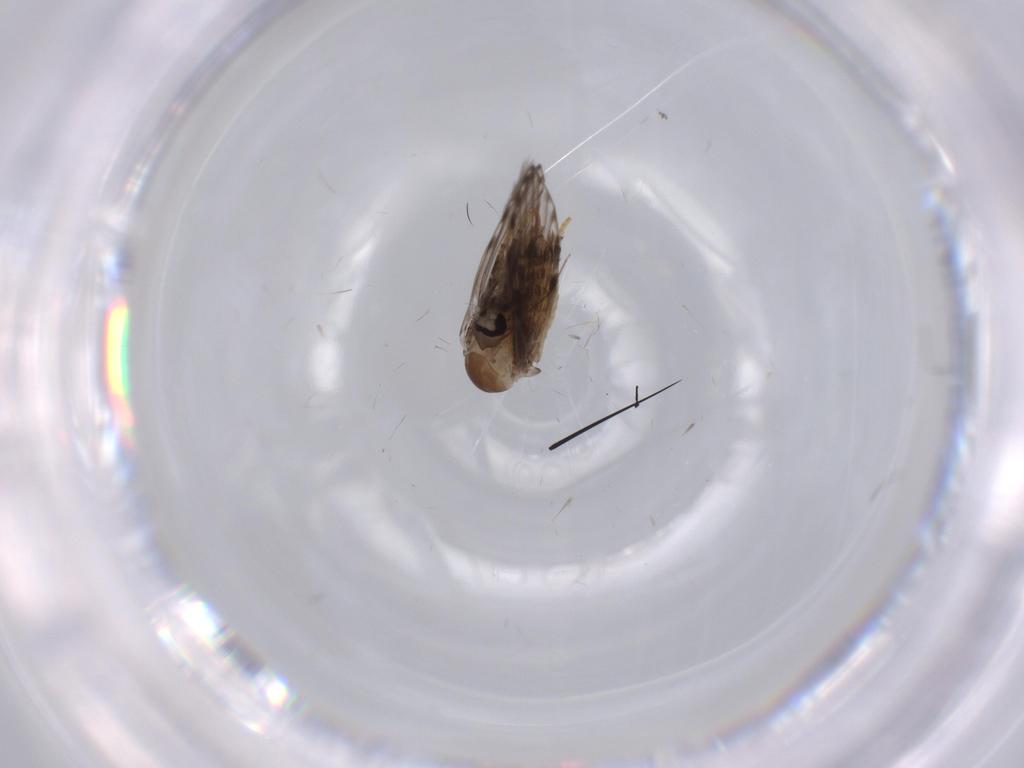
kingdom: Animalia
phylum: Arthropoda
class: Insecta
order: Diptera
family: Psychodidae
